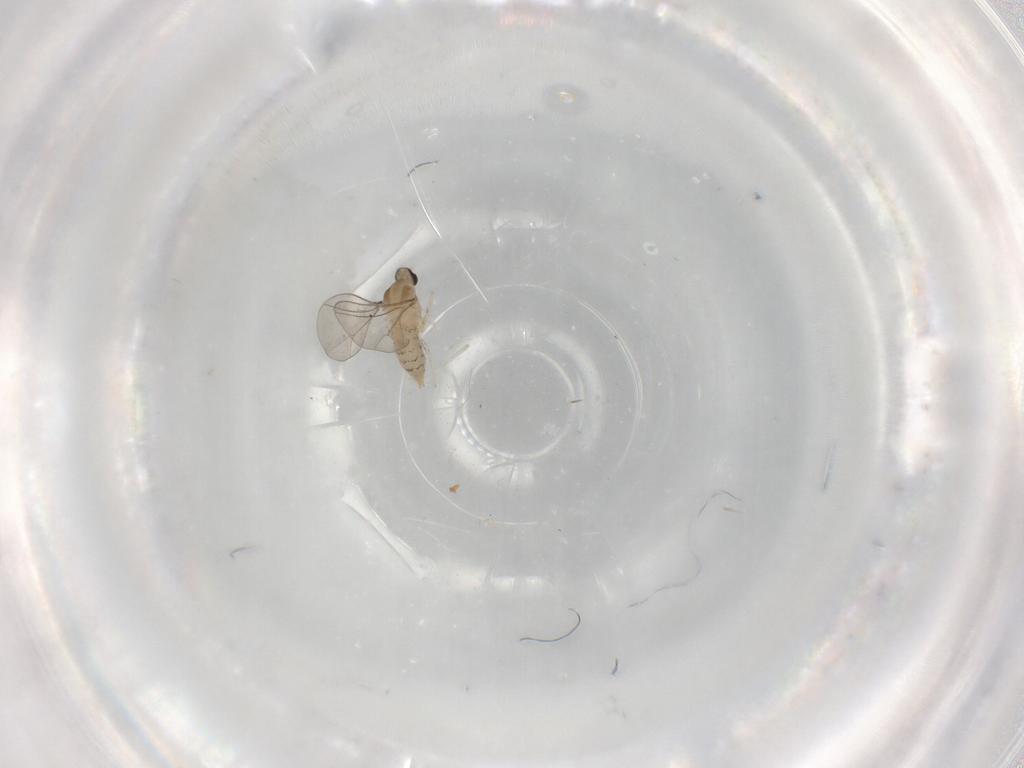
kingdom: Animalia
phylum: Arthropoda
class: Insecta
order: Diptera
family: Cecidomyiidae
